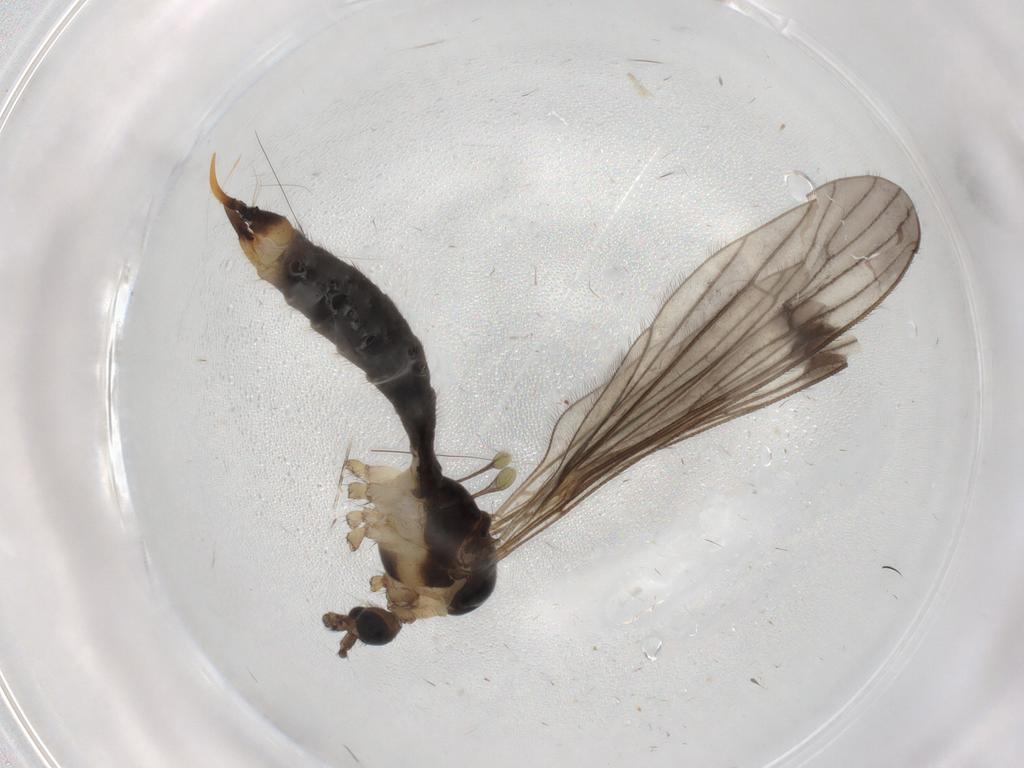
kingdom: Animalia
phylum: Arthropoda
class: Insecta
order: Diptera
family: Limoniidae
